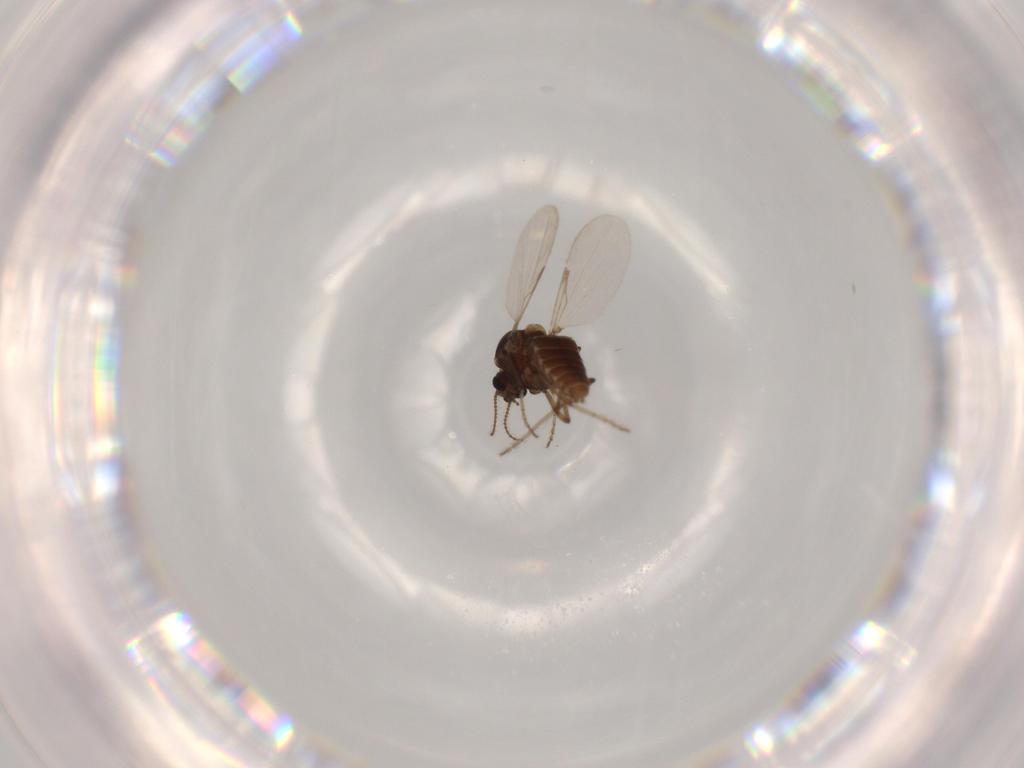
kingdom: Animalia
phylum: Arthropoda
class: Insecta
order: Diptera
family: Chironomidae
